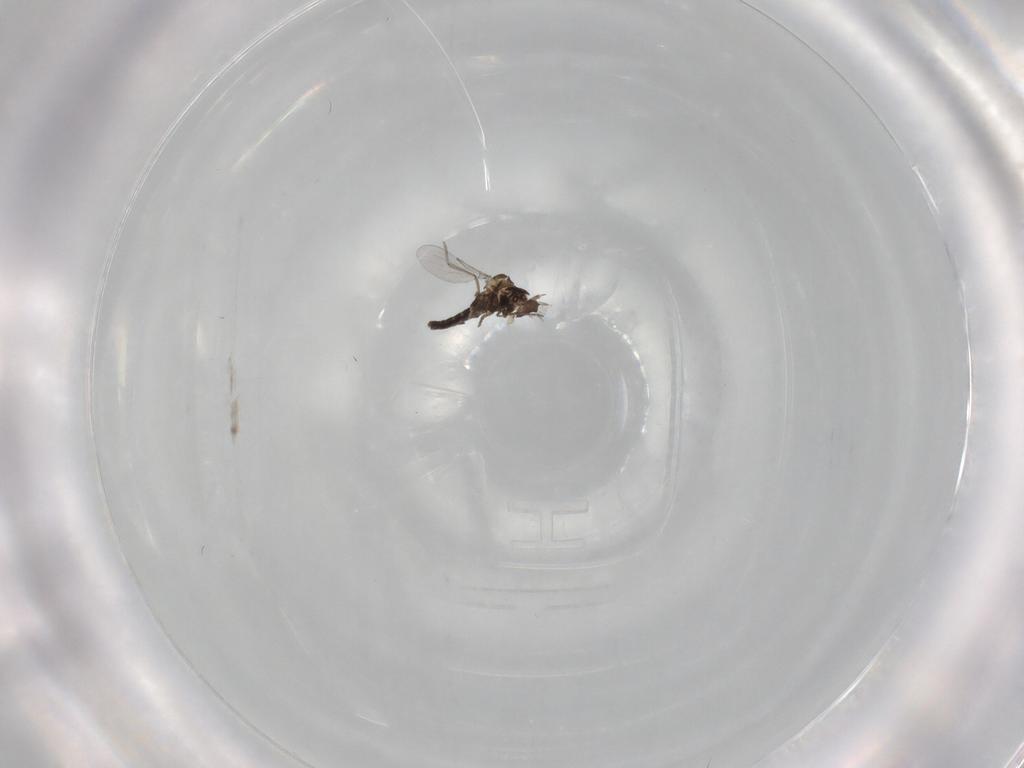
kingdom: Animalia
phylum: Arthropoda
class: Insecta
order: Diptera
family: Ceratopogonidae
